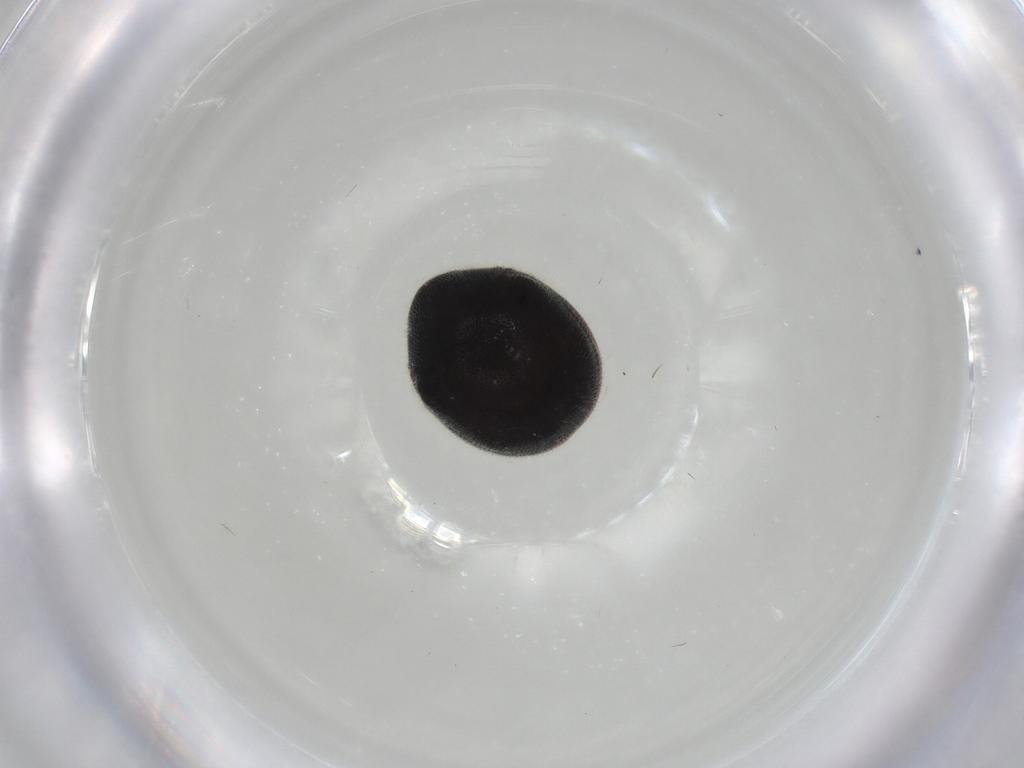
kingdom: Animalia
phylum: Arthropoda
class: Insecta
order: Coleoptera
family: Ptinidae
